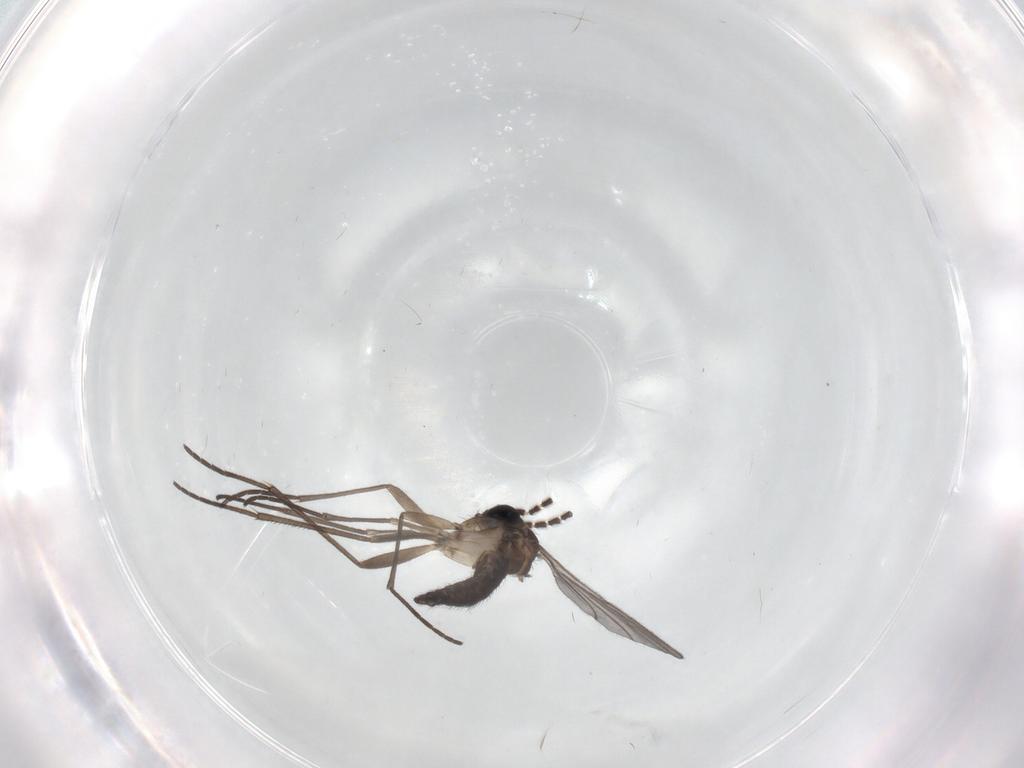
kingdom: Animalia
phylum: Arthropoda
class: Insecta
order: Diptera
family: Sciaridae
